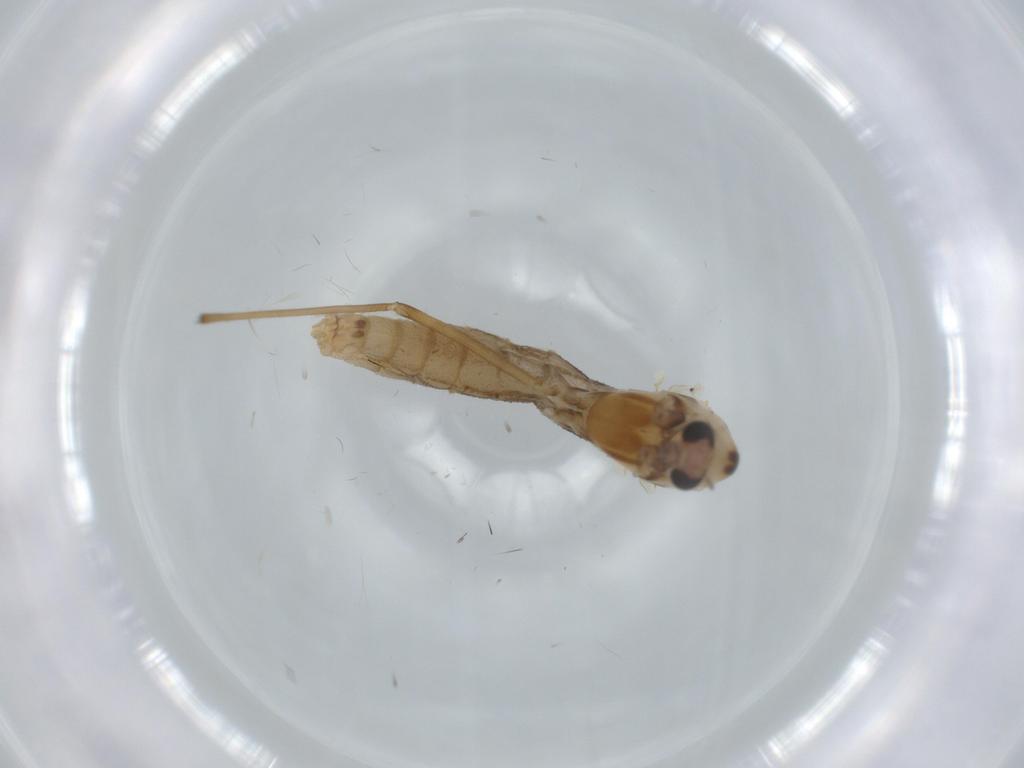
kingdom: Animalia
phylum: Arthropoda
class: Insecta
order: Diptera
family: Chironomidae
